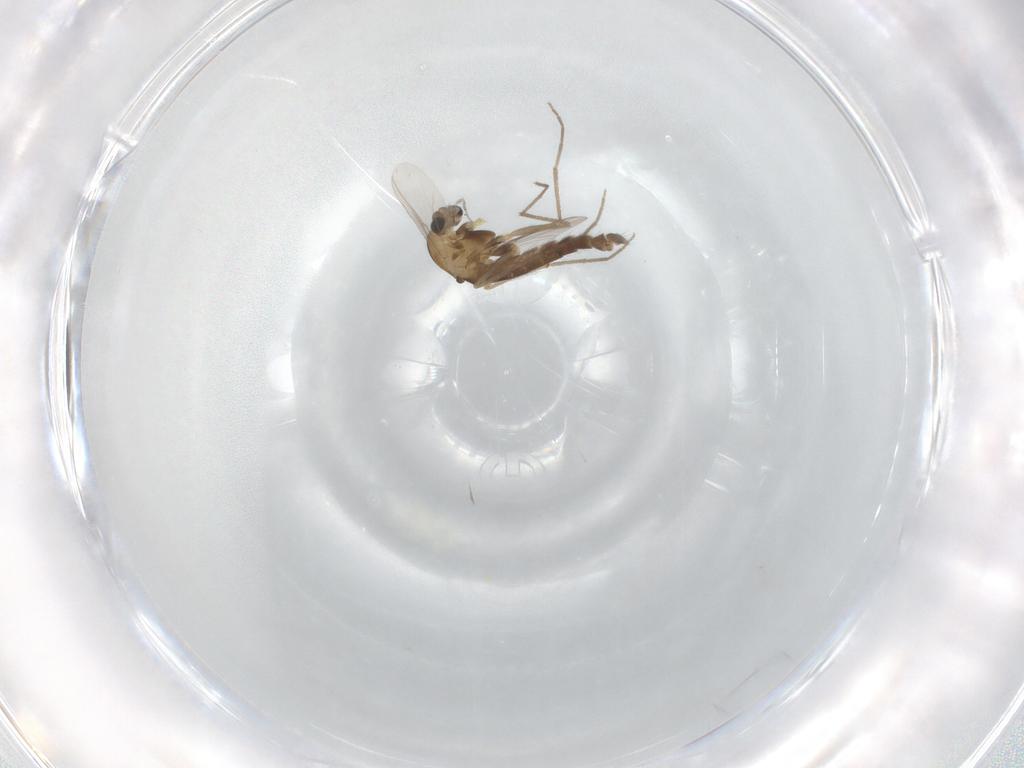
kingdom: Animalia
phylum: Arthropoda
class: Insecta
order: Diptera
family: Chironomidae
